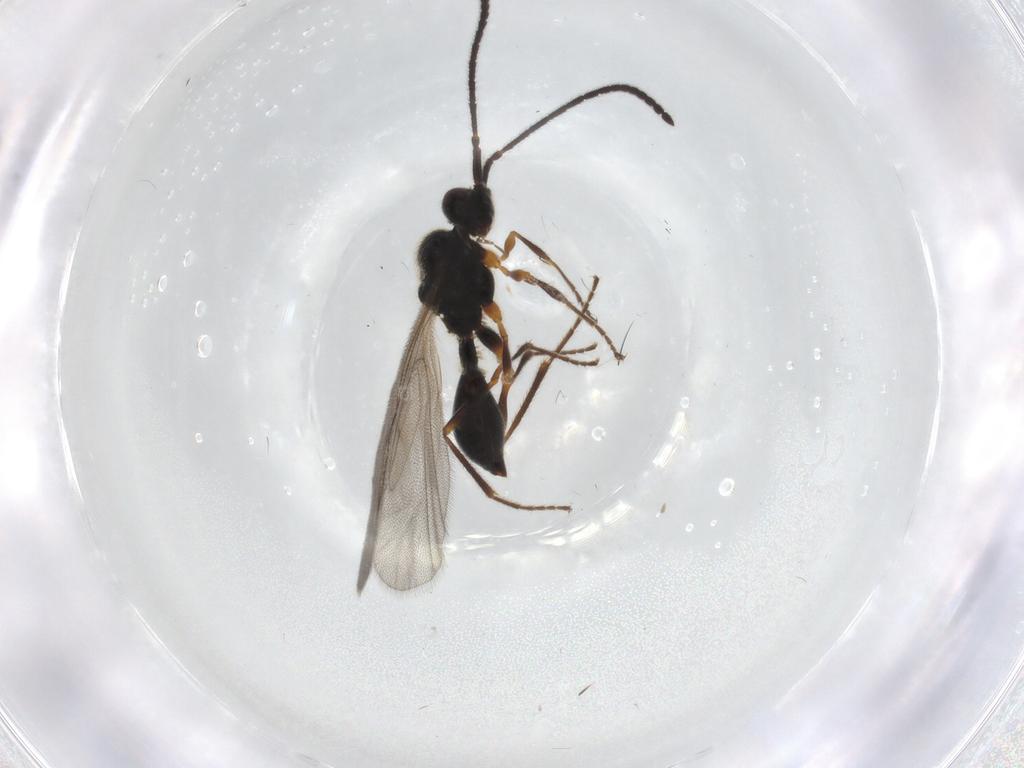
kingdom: Animalia
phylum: Arthropoda
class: Insecta
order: Hymenoptera
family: Diapriidae
